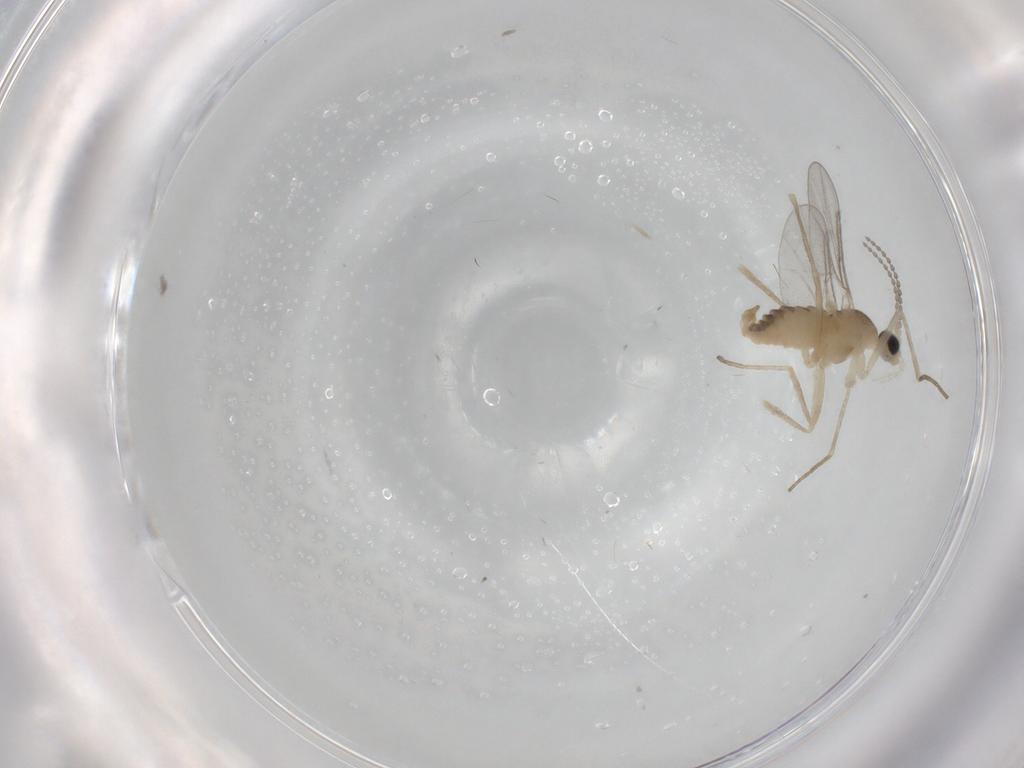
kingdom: Animalia
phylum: Arthropoda
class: Insecta
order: Diptera
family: Cecidomyiidae
